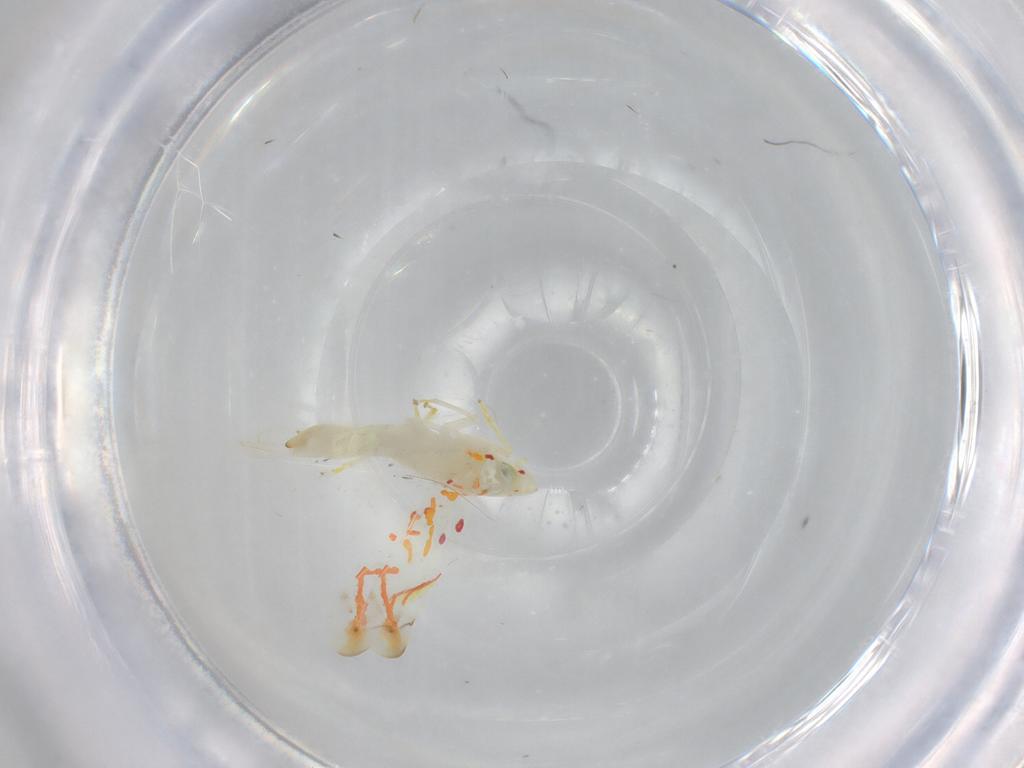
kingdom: Animalia
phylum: Arthropoda
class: Insecta
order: Hemiptera
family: Cicadellidae
